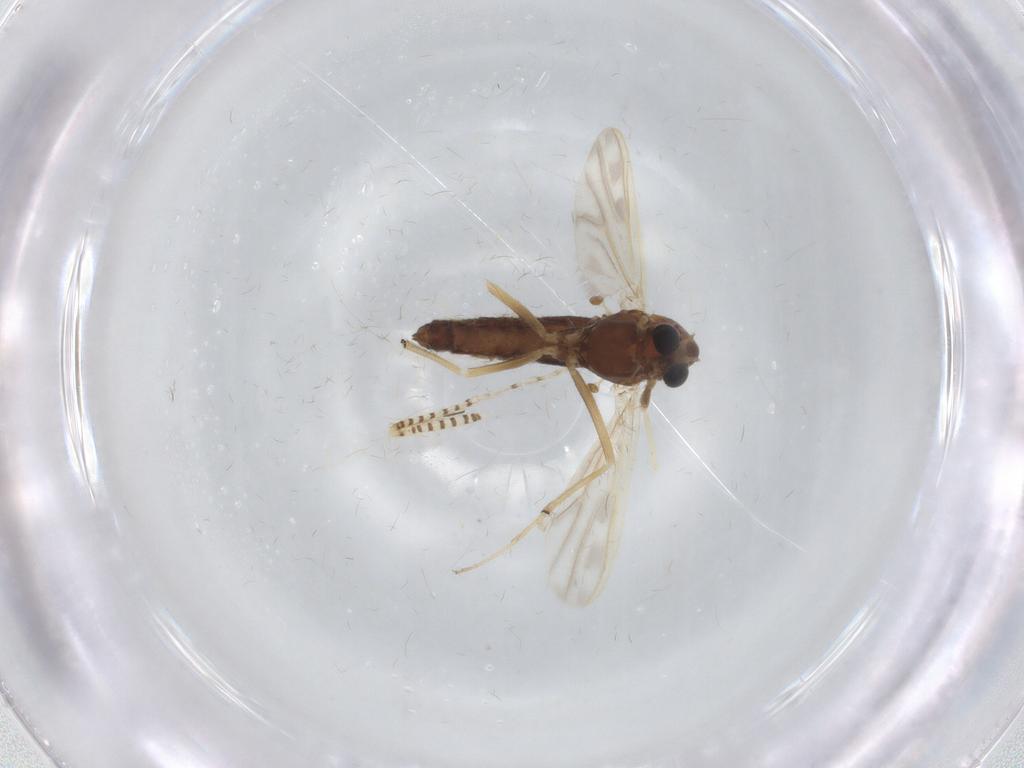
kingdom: Animalia
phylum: Arthropoda
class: Insecta
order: Diptera
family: Chironomidae
